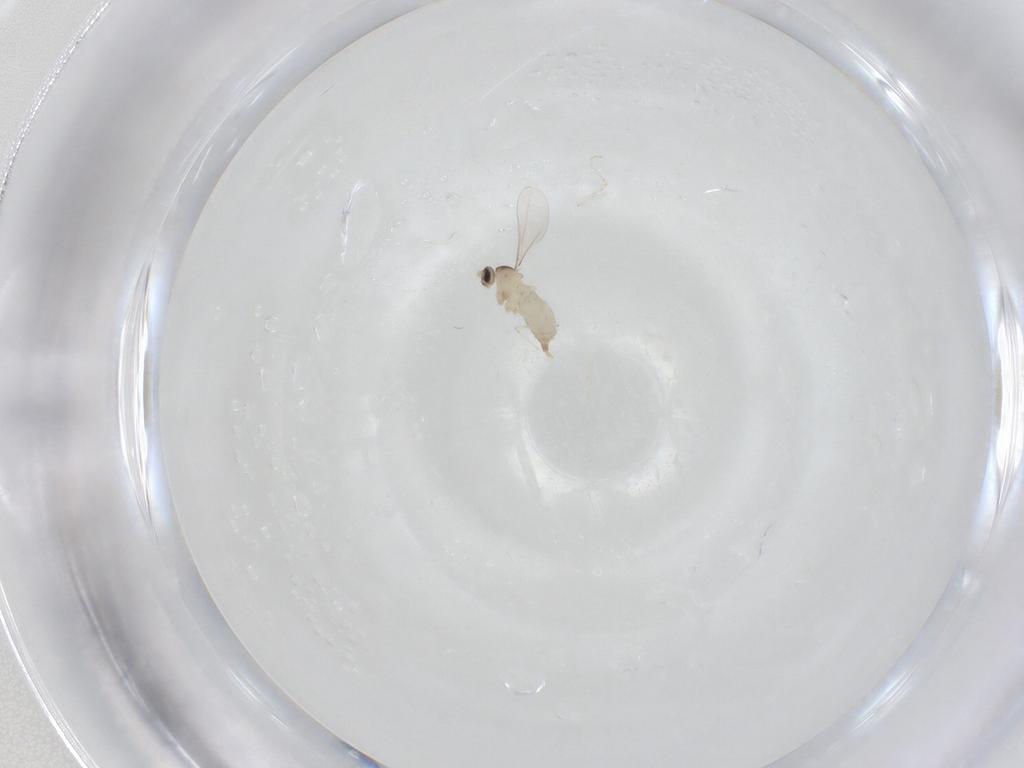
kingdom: Animalia
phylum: Arthropoda
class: Insecta
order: Diptera
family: Chironomidae
